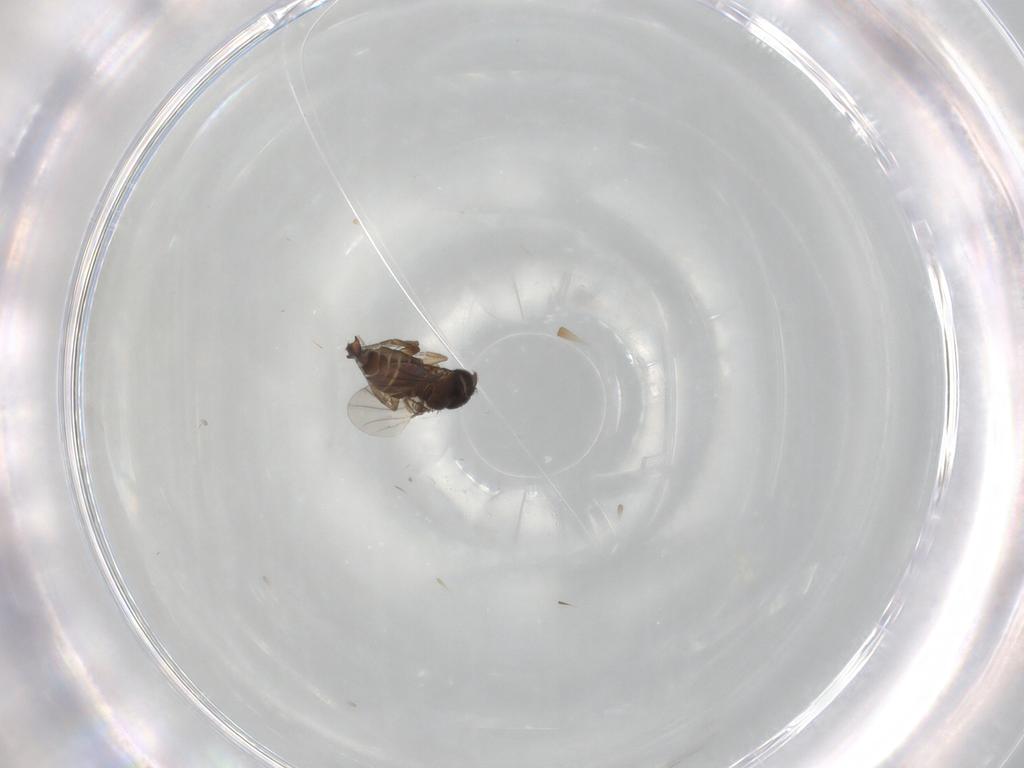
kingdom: Animalia
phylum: Arthropoda
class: Insecta
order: Diptera
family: Phoridae
